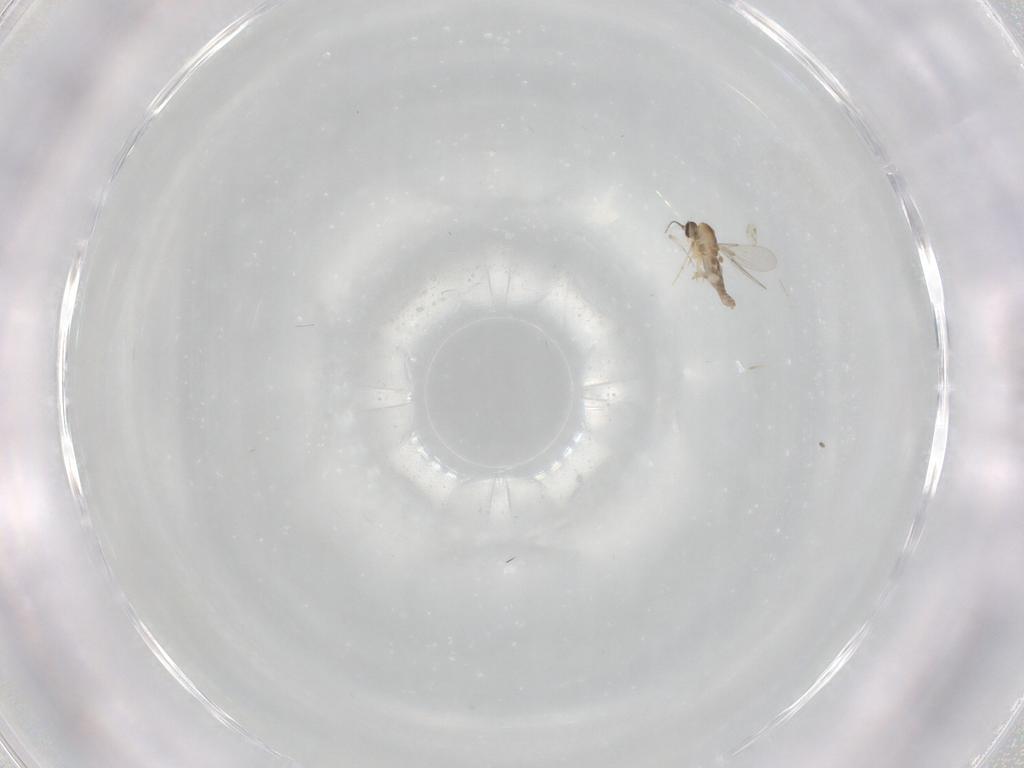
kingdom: Animalia
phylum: Arthropoda
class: Insecta
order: Diptera
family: Sciaridae
